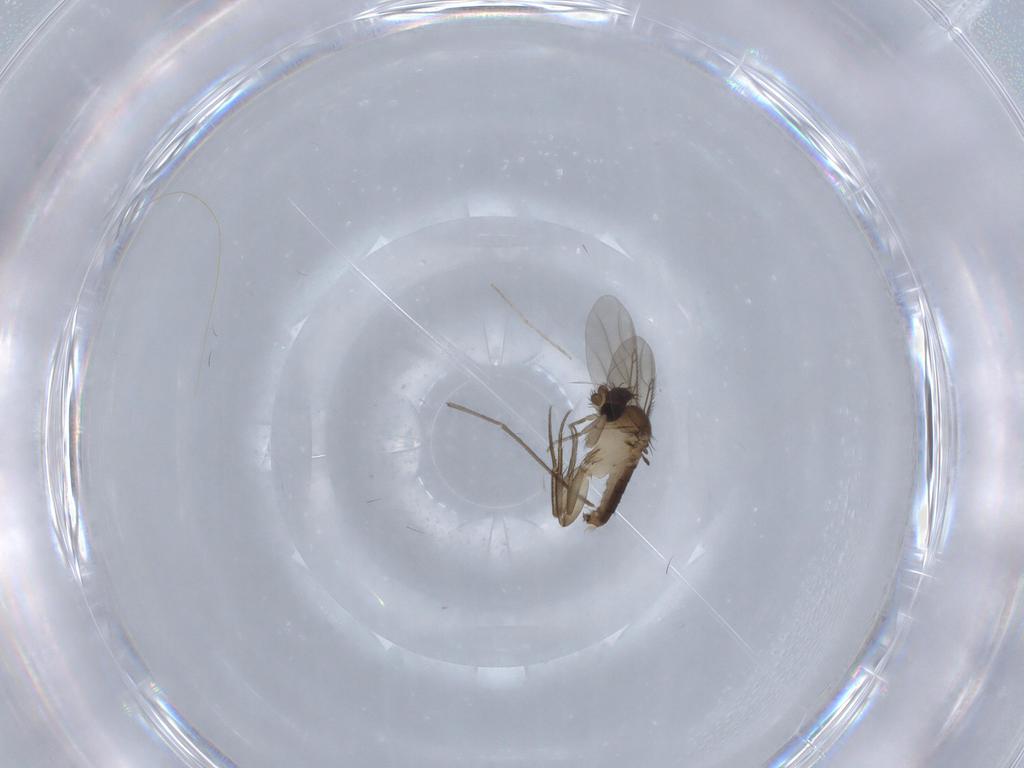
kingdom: Animalia
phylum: Arthropoda
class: Insecta
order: Diptera
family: Phoridae
